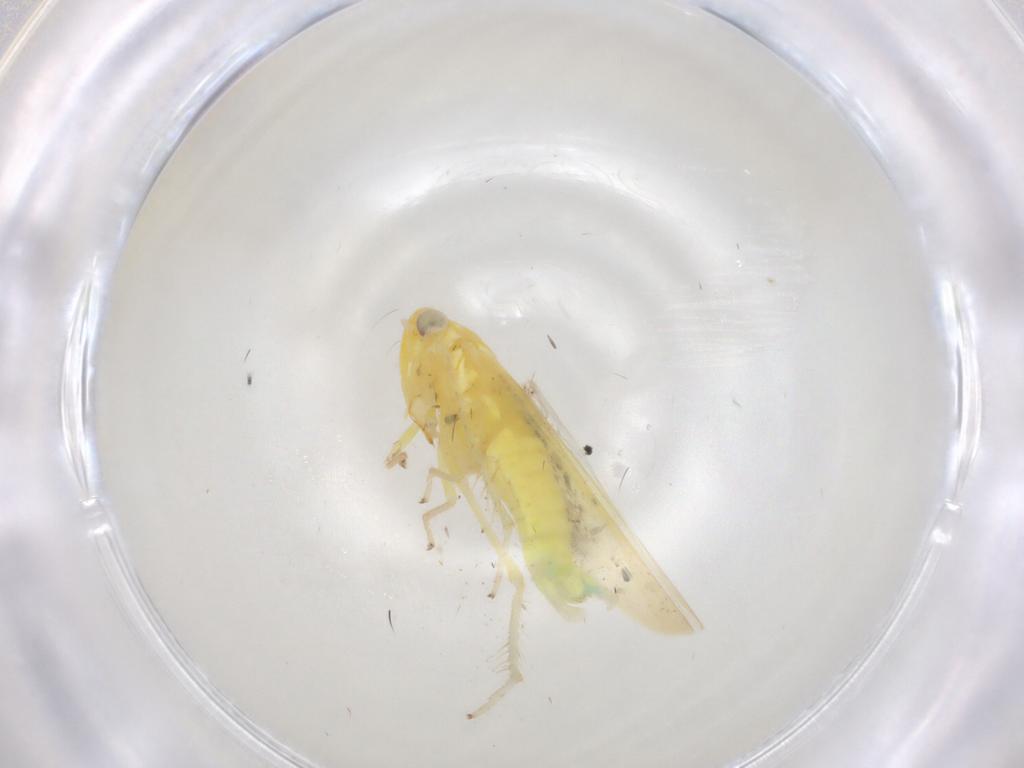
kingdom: Animalia
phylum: Arthropoda
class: Insecta
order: Hemiptera
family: Cicadellidae
